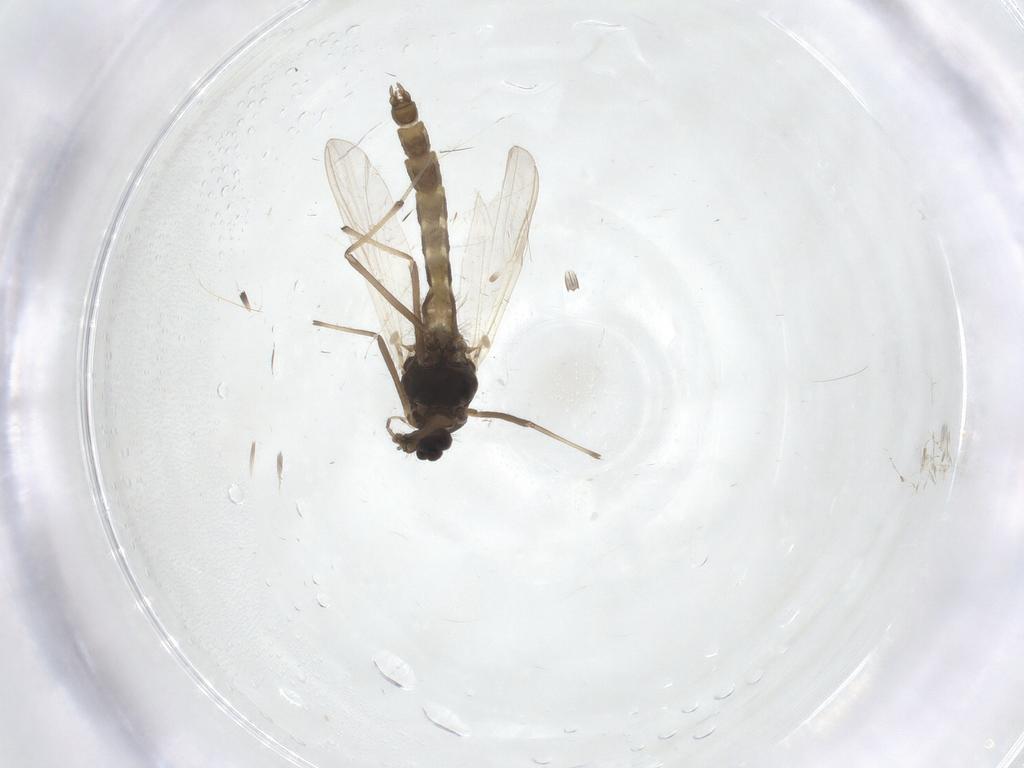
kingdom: Animalia
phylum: Arthropoda
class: Insecta
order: Diptera
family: Chironomidae
